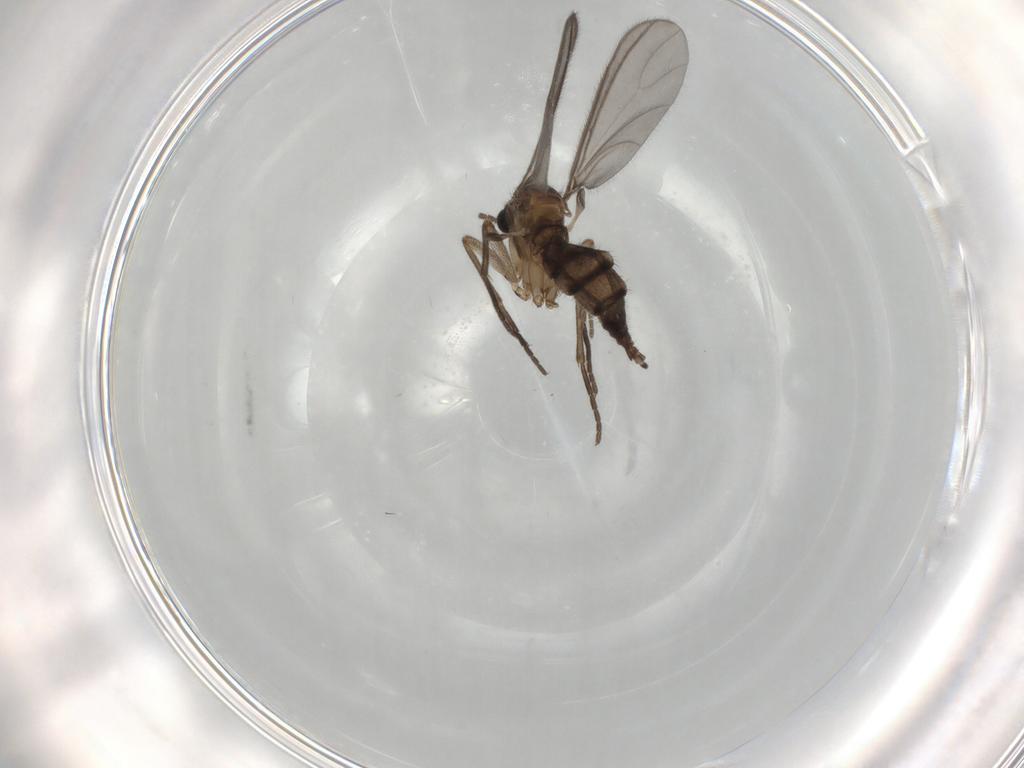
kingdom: Animalia
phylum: Arthropoda
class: Insecta
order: Diptera
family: Sciaridae
